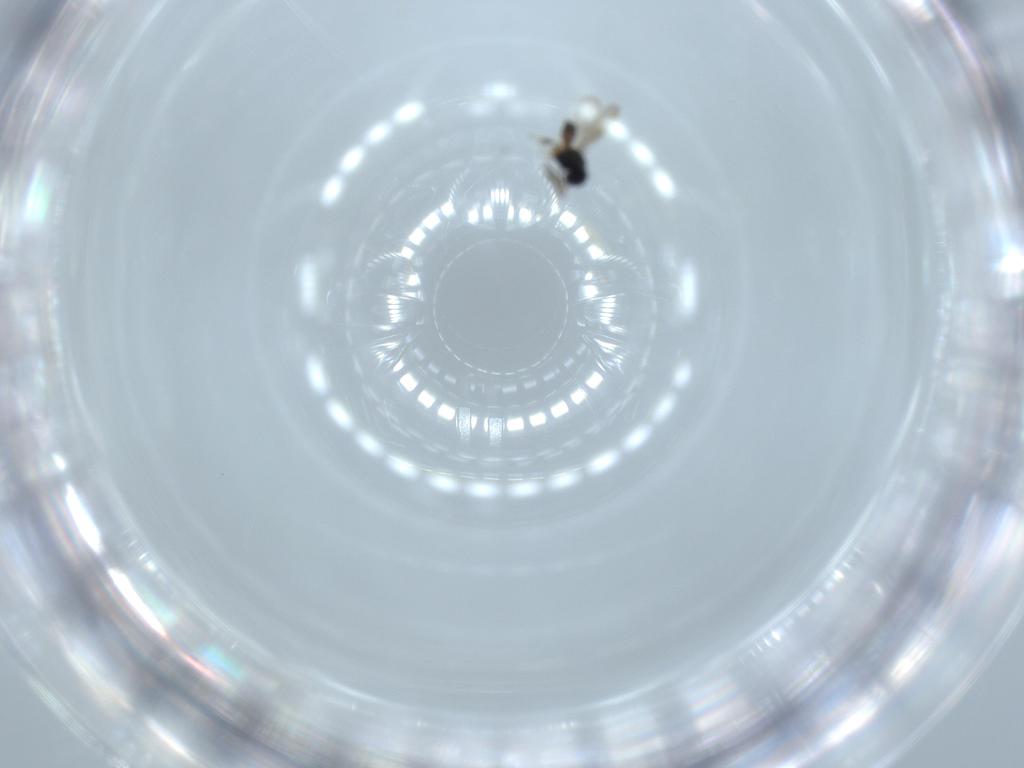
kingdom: Animalia
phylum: Arthropoda
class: Insecta
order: Hymenoptera
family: Scelionidae
